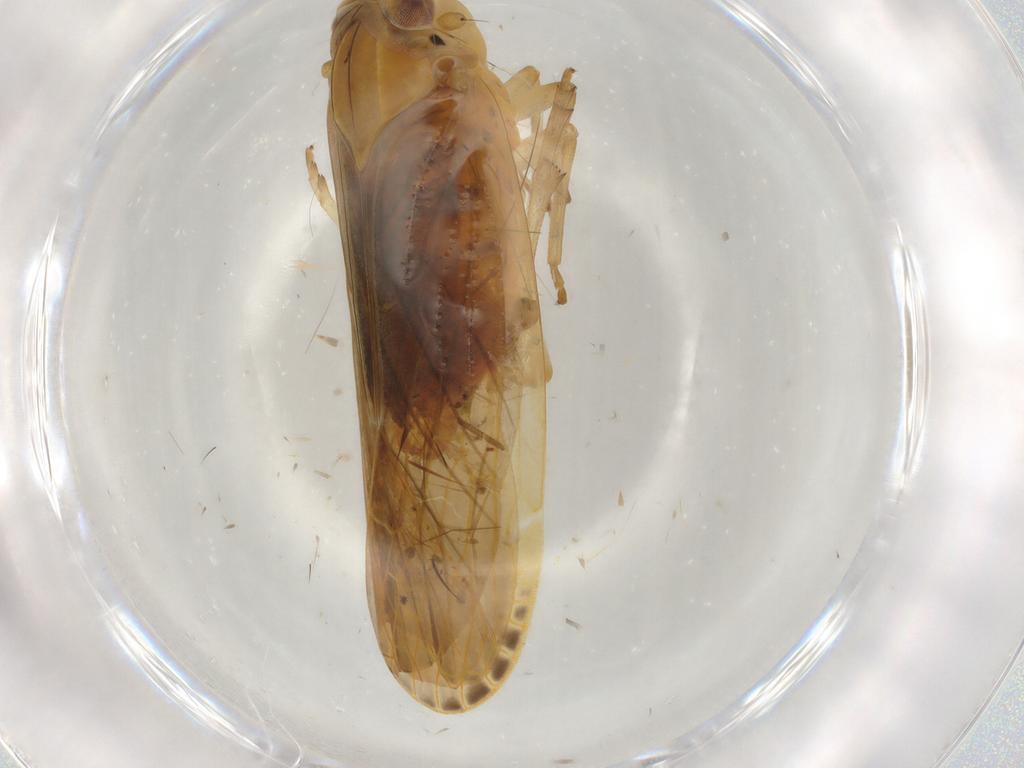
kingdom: Animalia
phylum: Arthropoda
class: Insecta
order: Hemiptera
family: Achilidae
